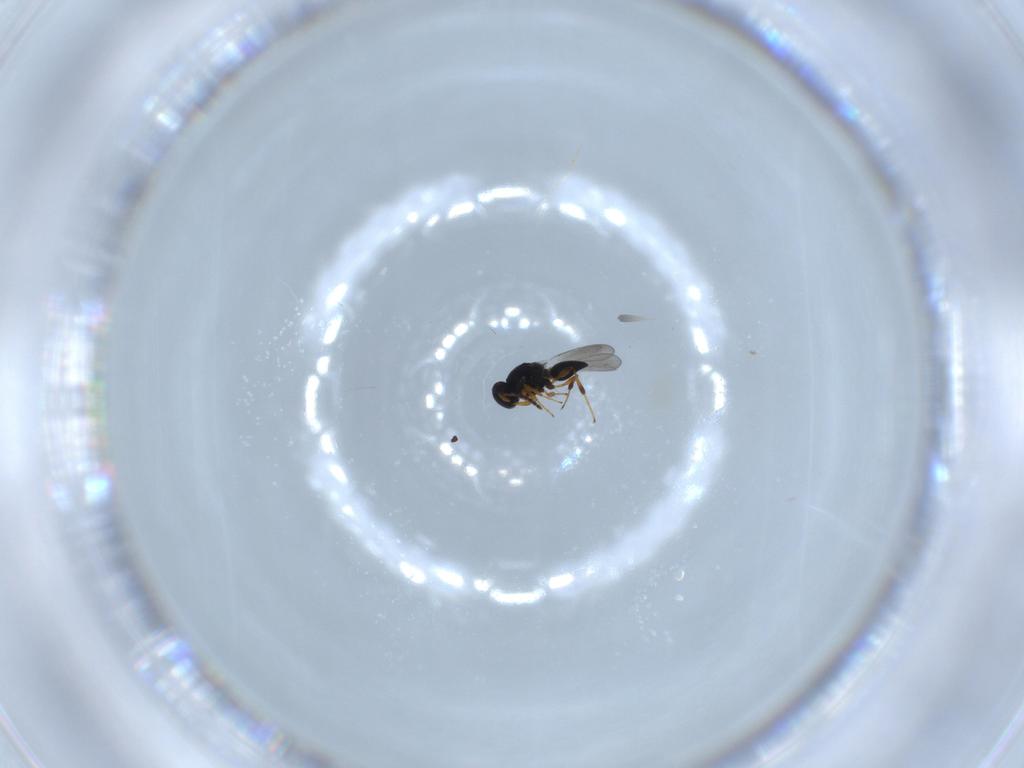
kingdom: Animalia
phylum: Arthropoda
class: Insecta
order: Hymenoptera
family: Platygastridae
